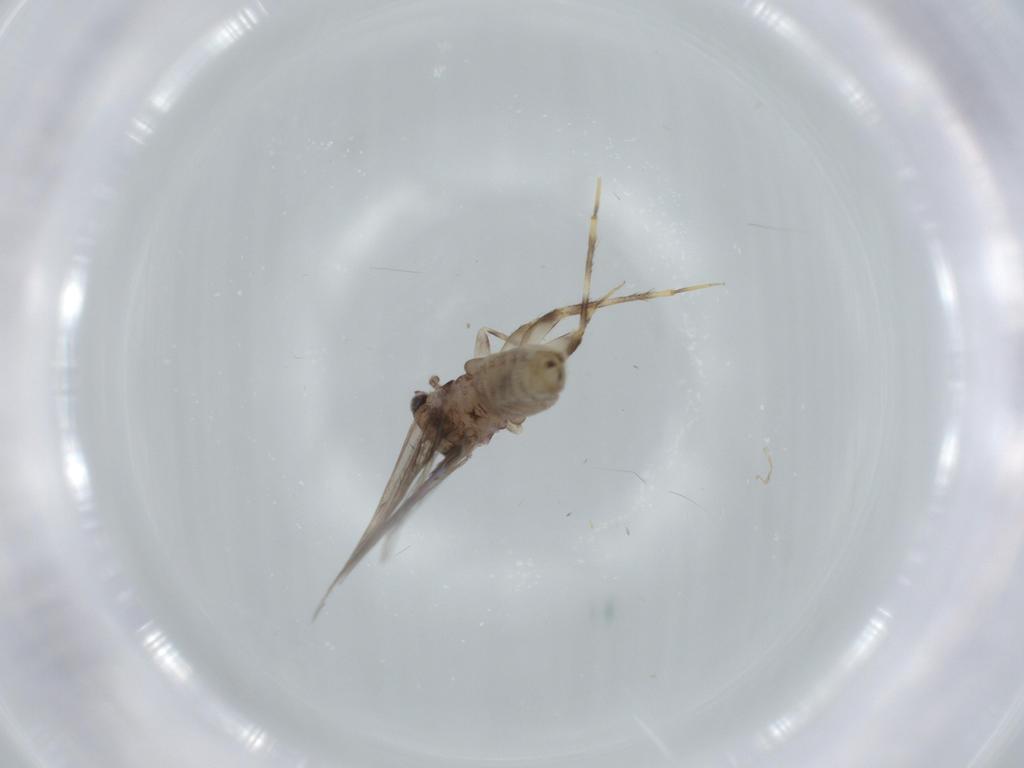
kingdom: Animalia
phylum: Arthropoda
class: Insecta
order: Psocodea
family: Lepidopsocidae
